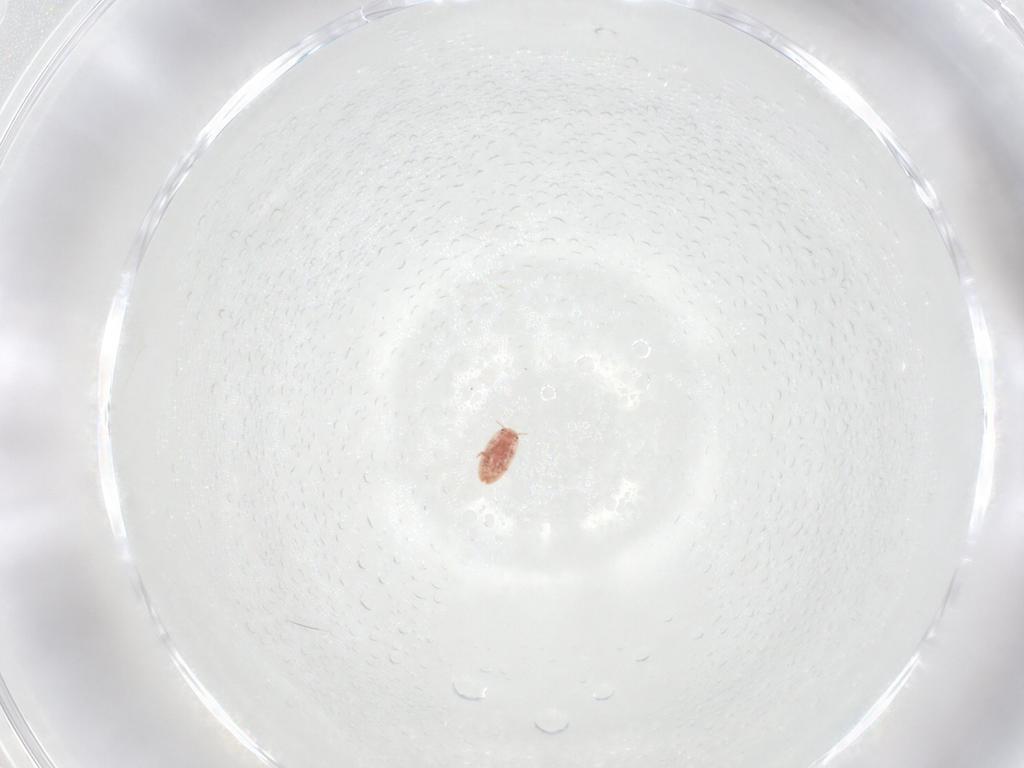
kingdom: Animalia
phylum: Arthropoda
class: Insecta
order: Hemiptera
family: Coccidae
